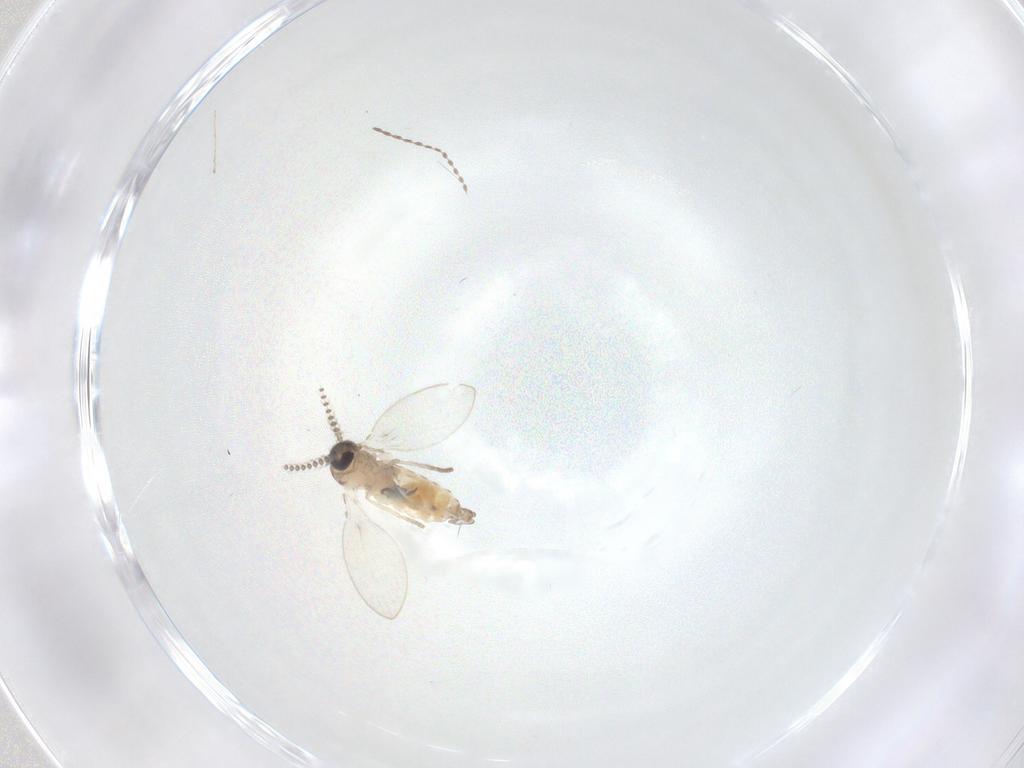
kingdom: Animalia
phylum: Arthropoda
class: Insecta
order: Diptera
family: Psychodidae
